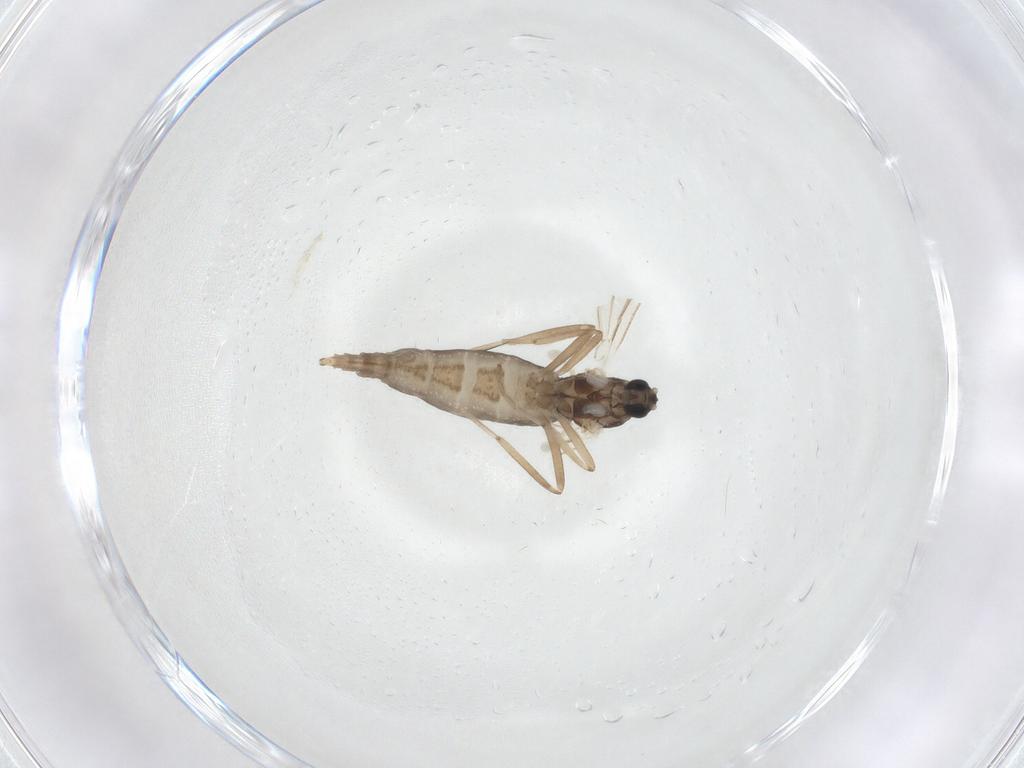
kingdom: Animalia
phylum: Arthropoda
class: Insecta
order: Diptera
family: Cecidomyiidae
